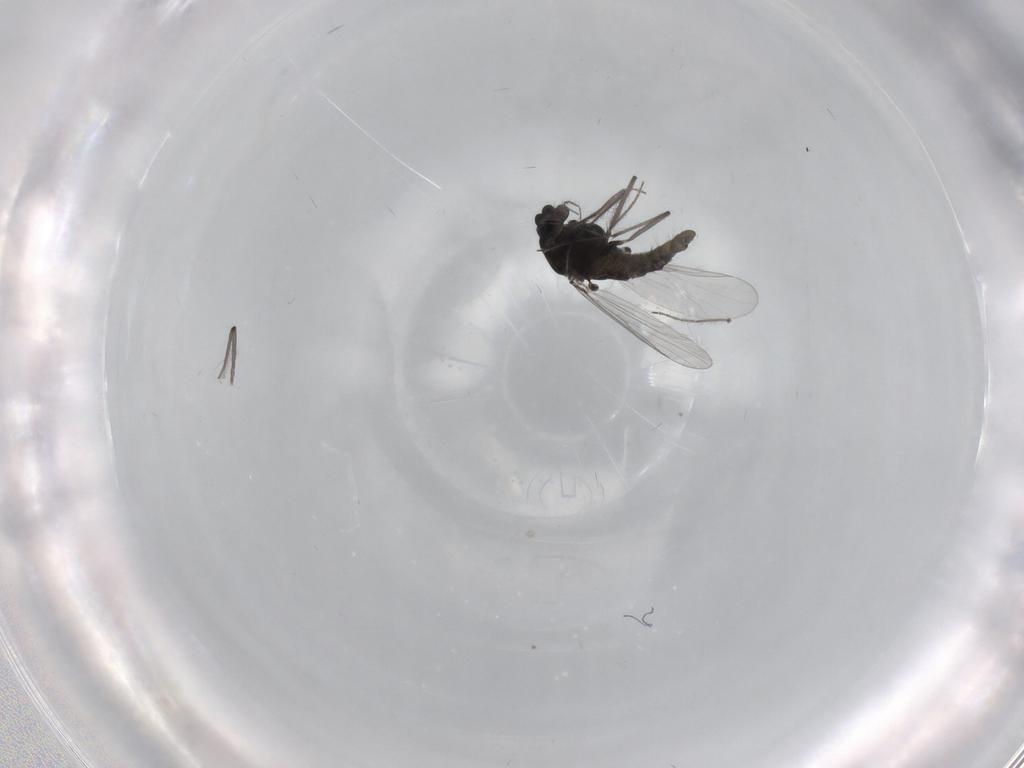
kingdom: Animalia
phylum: Arthropoda
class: Insecta
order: Diptera
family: Chironomidae
